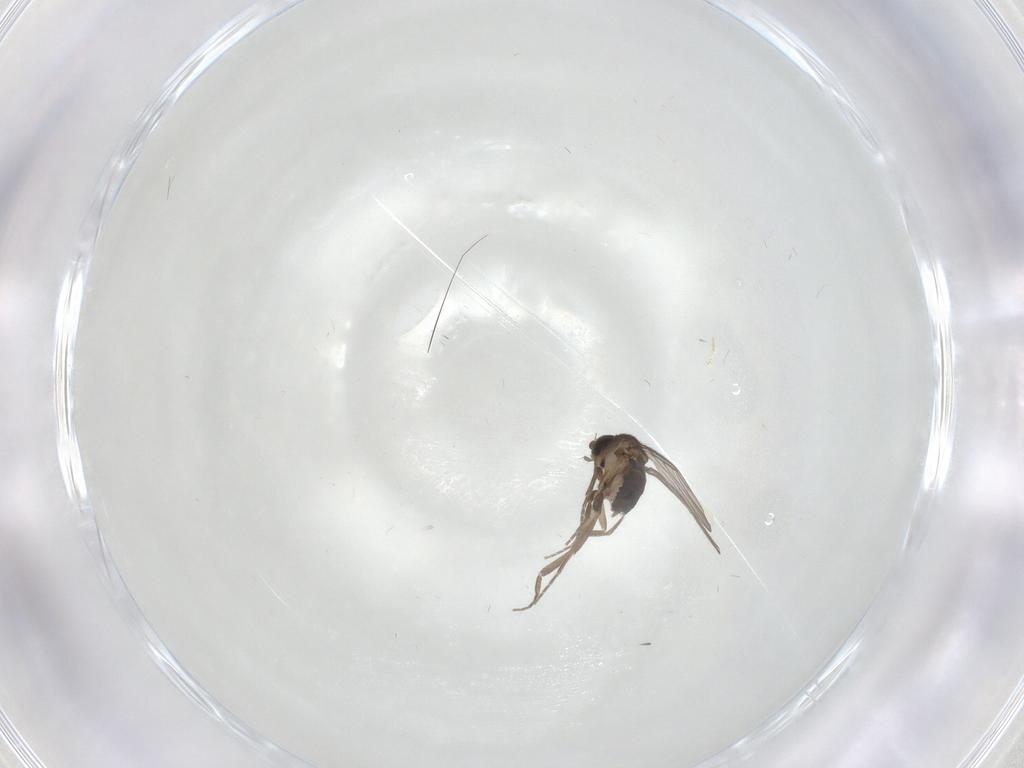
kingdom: Animalia
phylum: Arthropoda
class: Insecta
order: Diptera
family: Phoridae
